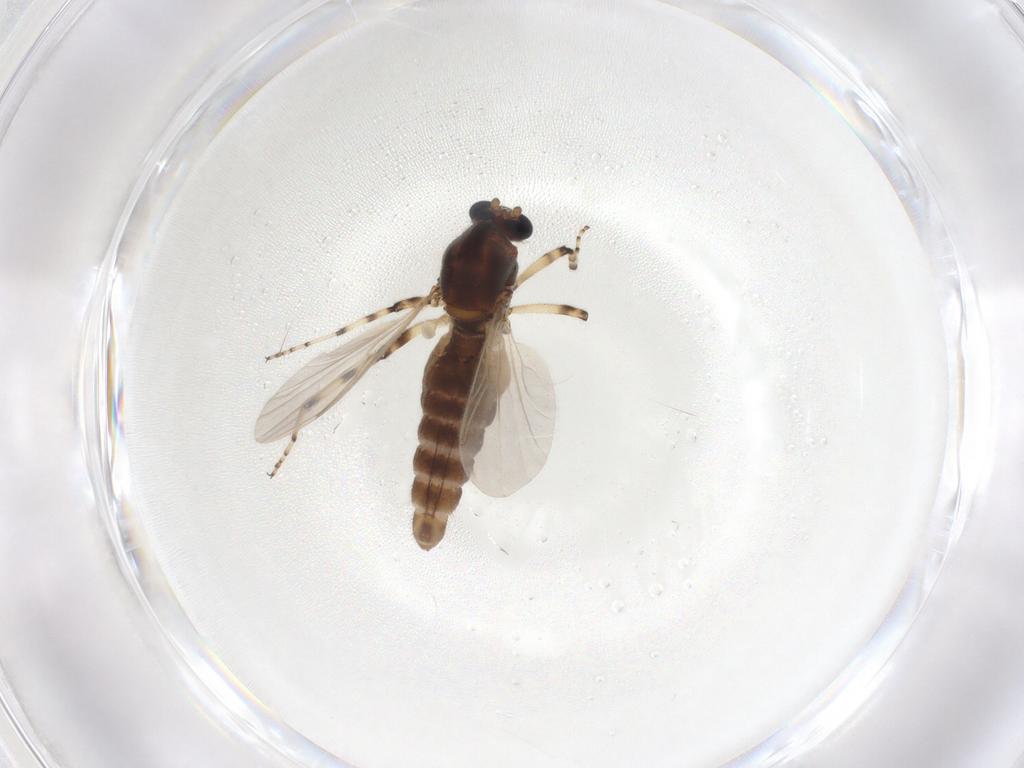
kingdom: Animalia
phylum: Arthropoda
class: Insecta
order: Diptera
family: Ceratopogonidae
